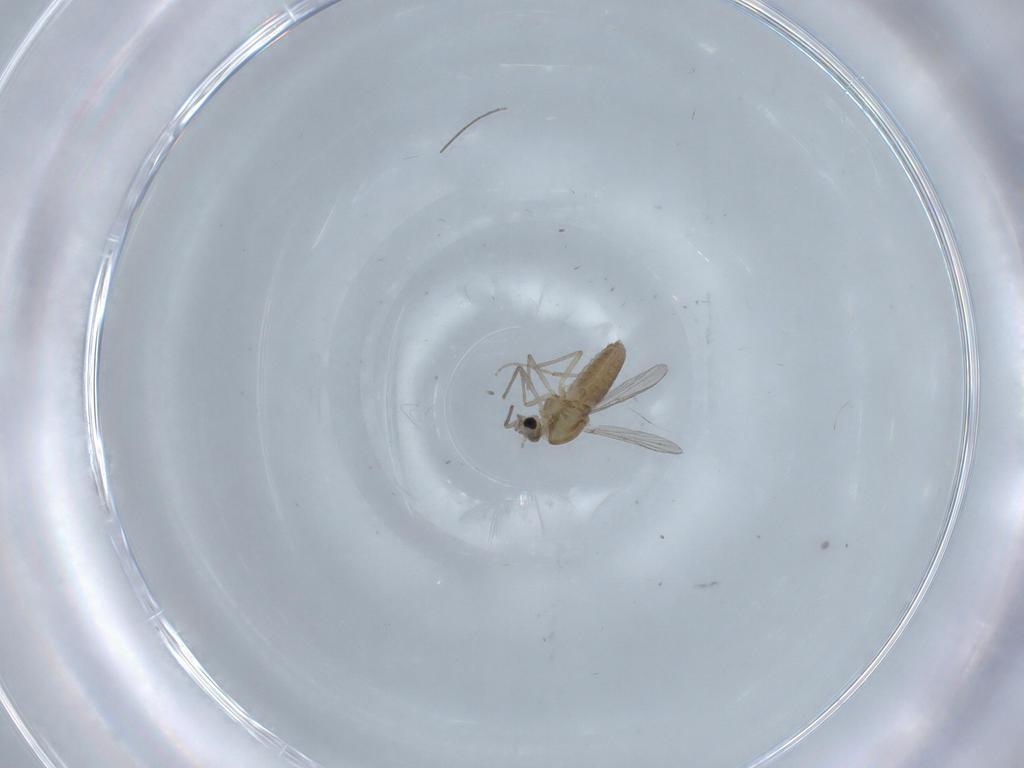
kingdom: Animalia
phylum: Arthropoda
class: Insecta
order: Diptera
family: Chironomidae
